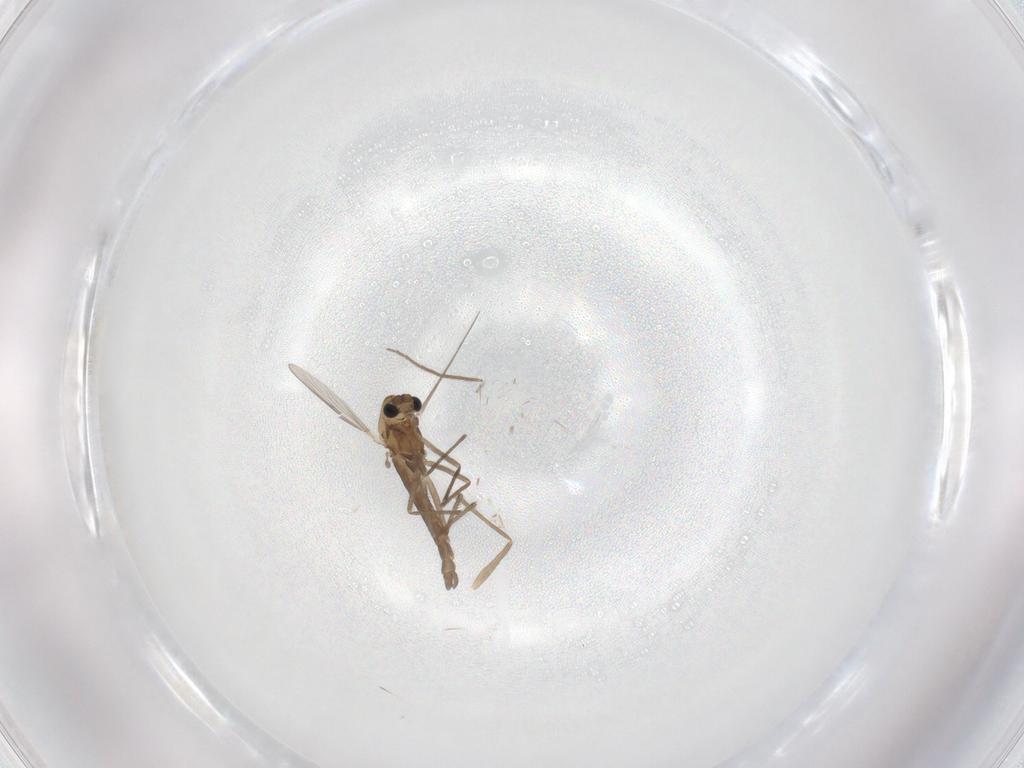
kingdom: Animalia
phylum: Arthropoda
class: Insecta
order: Diptera
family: Chironomidae
